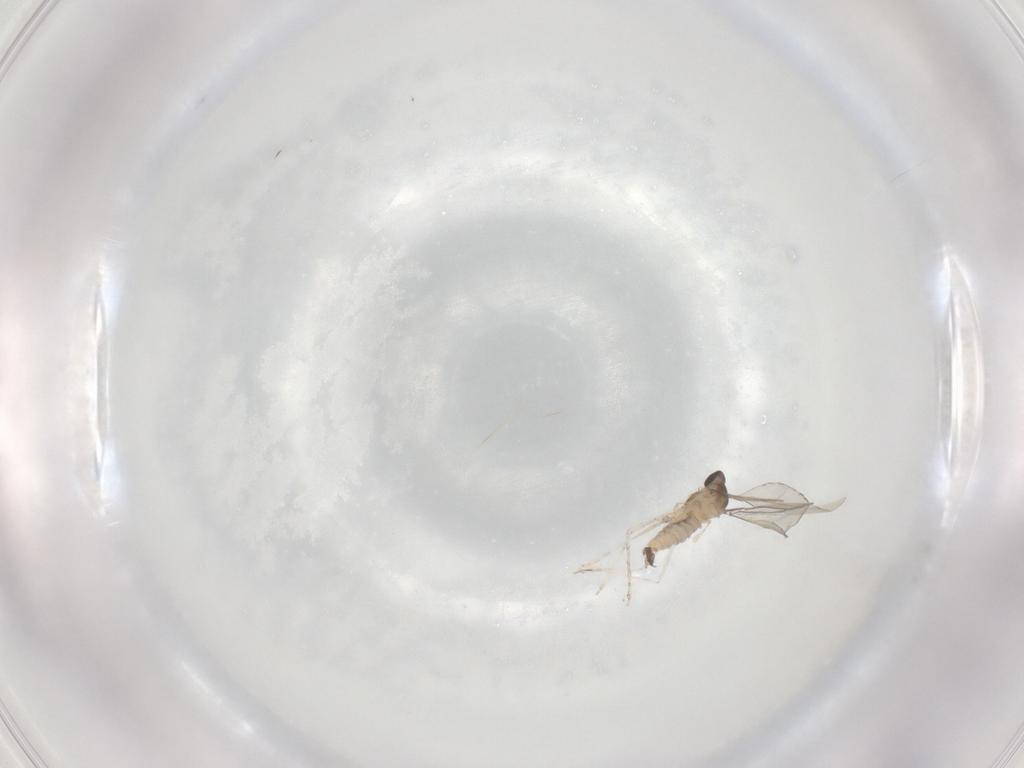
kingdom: Animalia
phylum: Arthropoda
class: Insecta
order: Diptera
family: Cecidomyiidae
